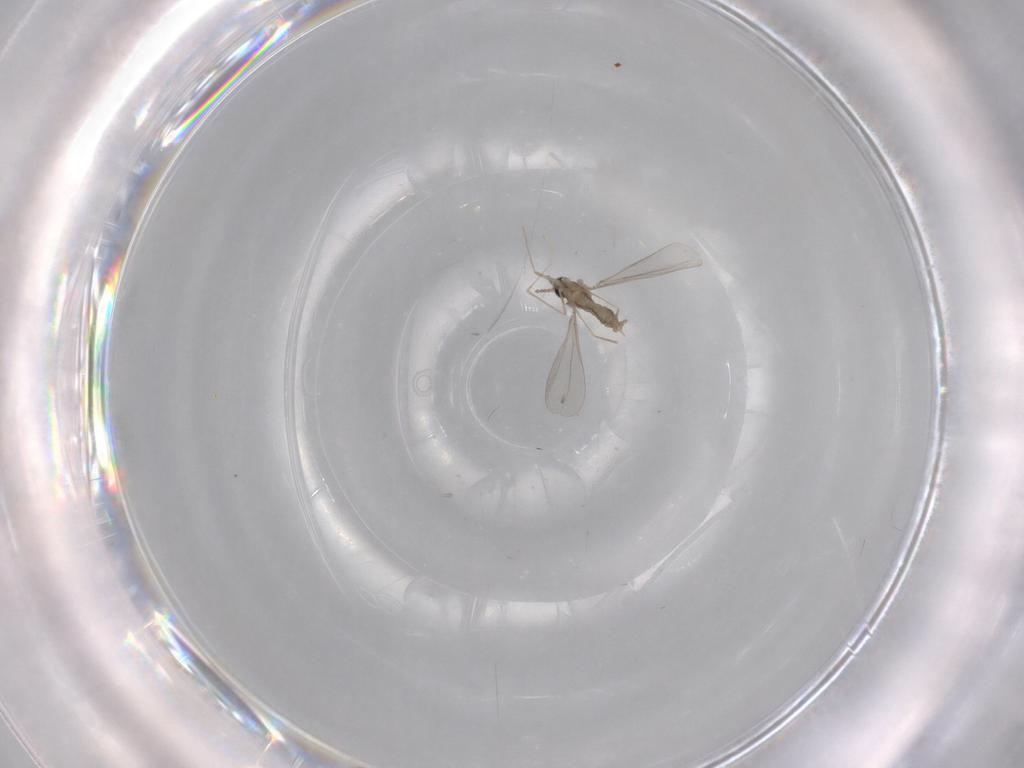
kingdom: Animalia
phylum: Arthropoda
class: Insecta
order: Diptera
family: Cecidomyiidae
